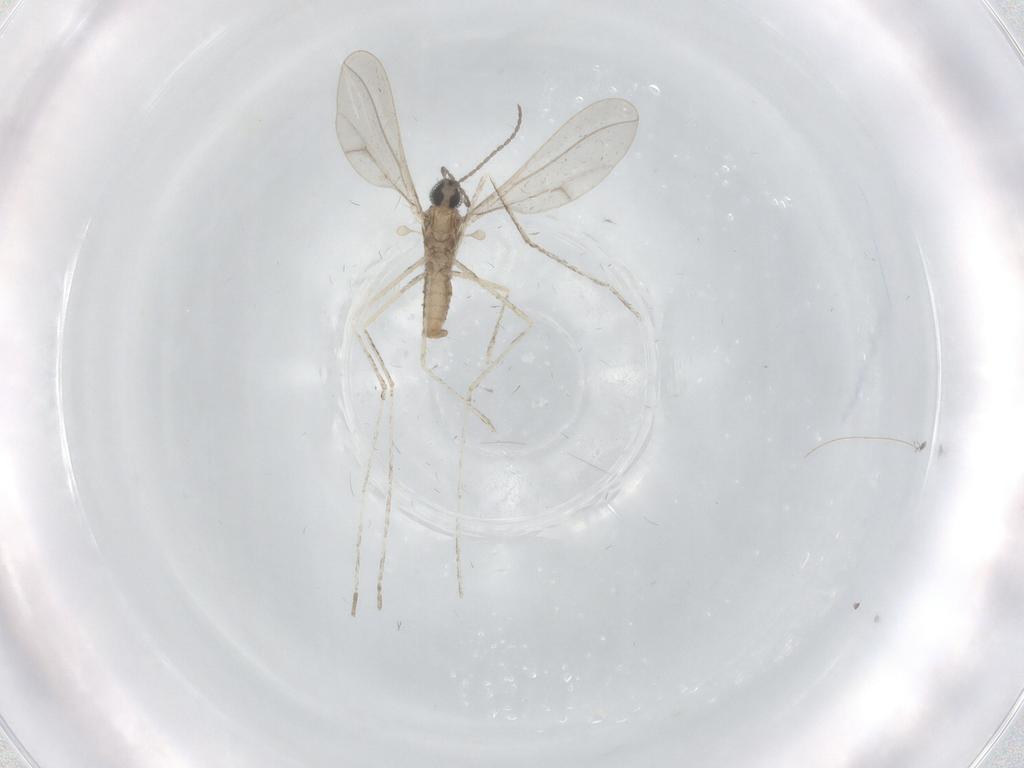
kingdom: Animalia
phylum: Arthropoda
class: Insecta
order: Diptera
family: Cecidomyiidae
